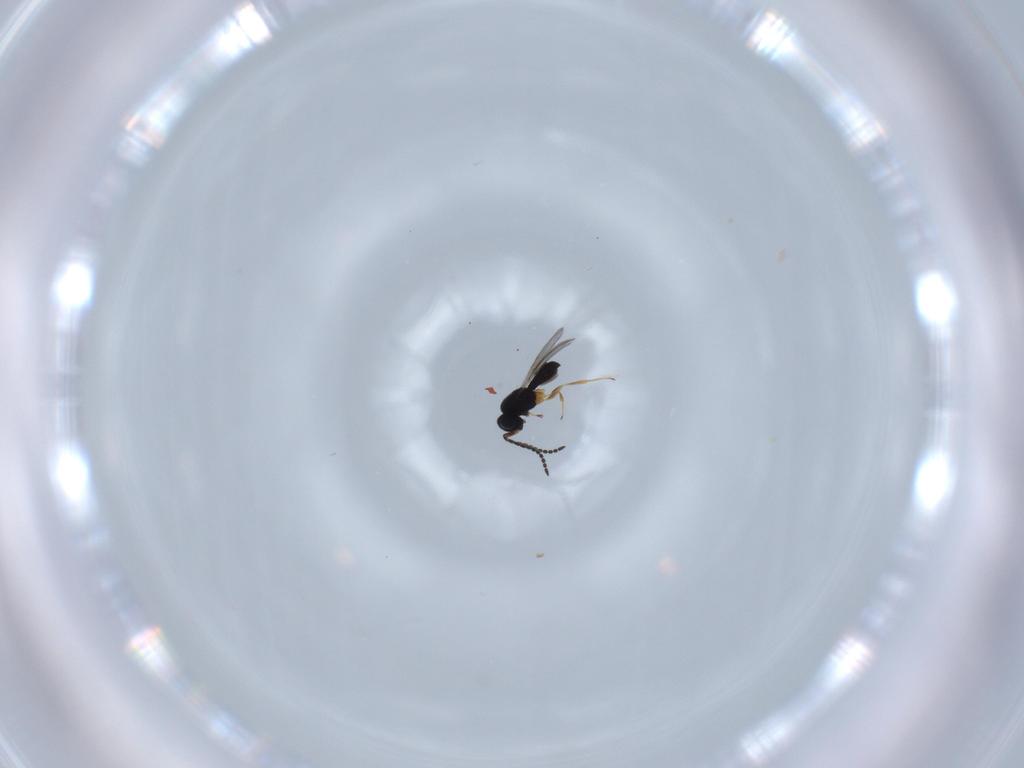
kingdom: Animalia
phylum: Arthropoda
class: Insecta
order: Hymenoptera
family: Scelionidae
